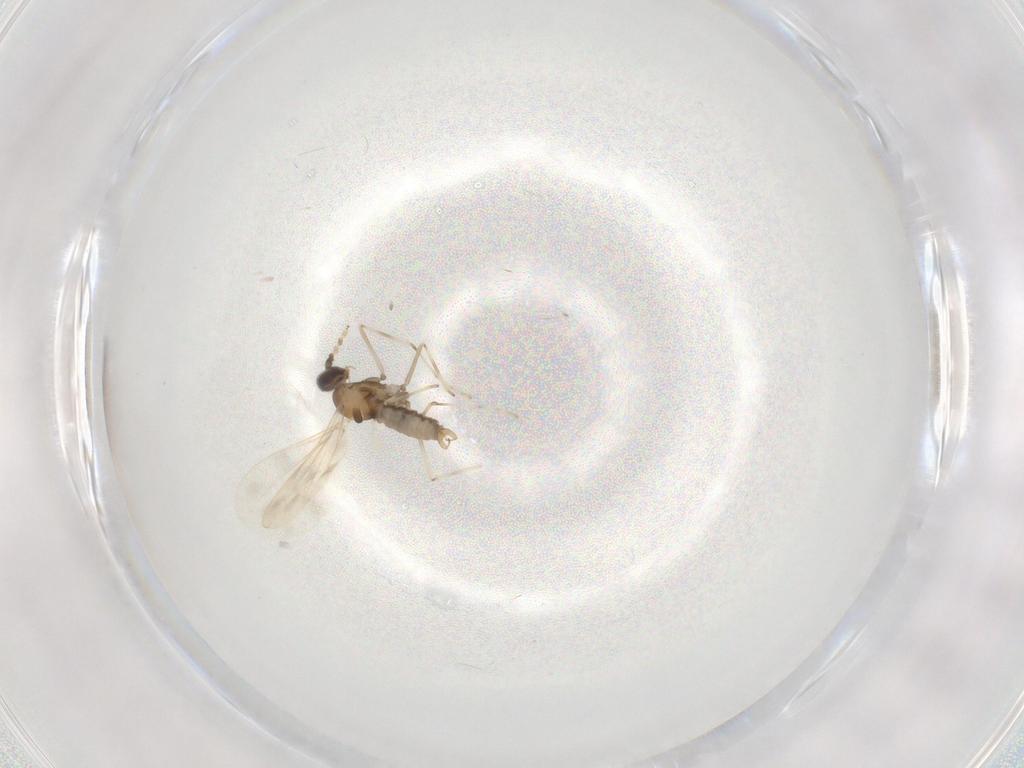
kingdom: Animalia
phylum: Arthropoda
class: Insecta
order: Diptera
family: Cecidomyiidae
